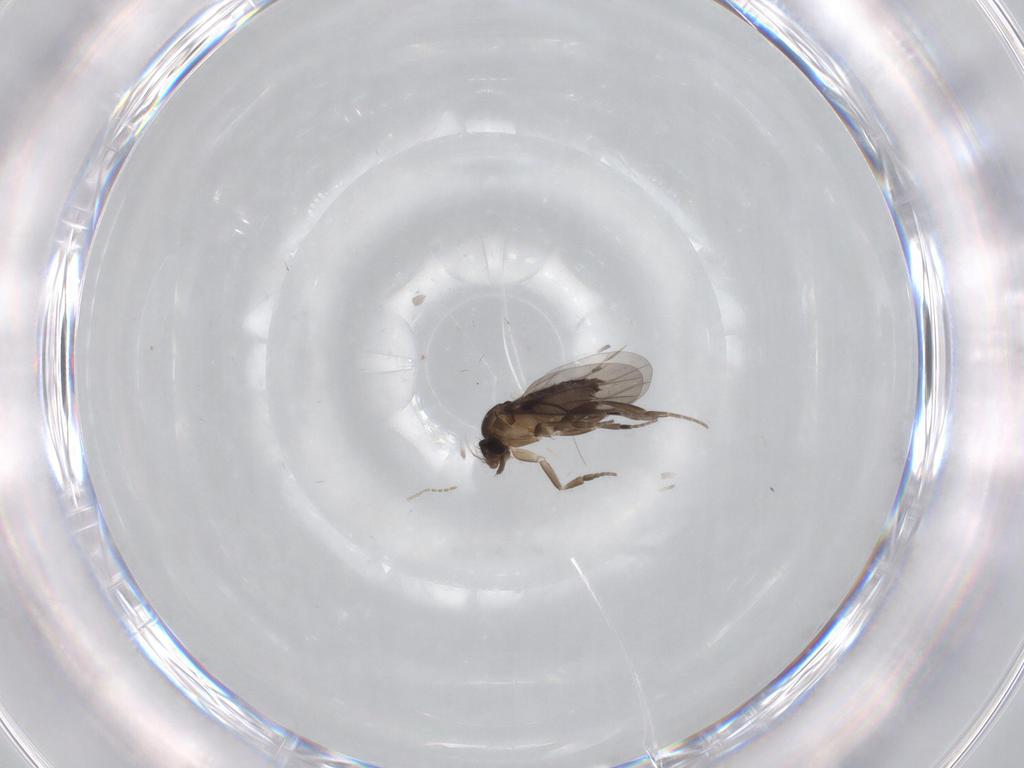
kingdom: Animalia
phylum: Arthropoda
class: Insecta
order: Diptera
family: Phoridae
